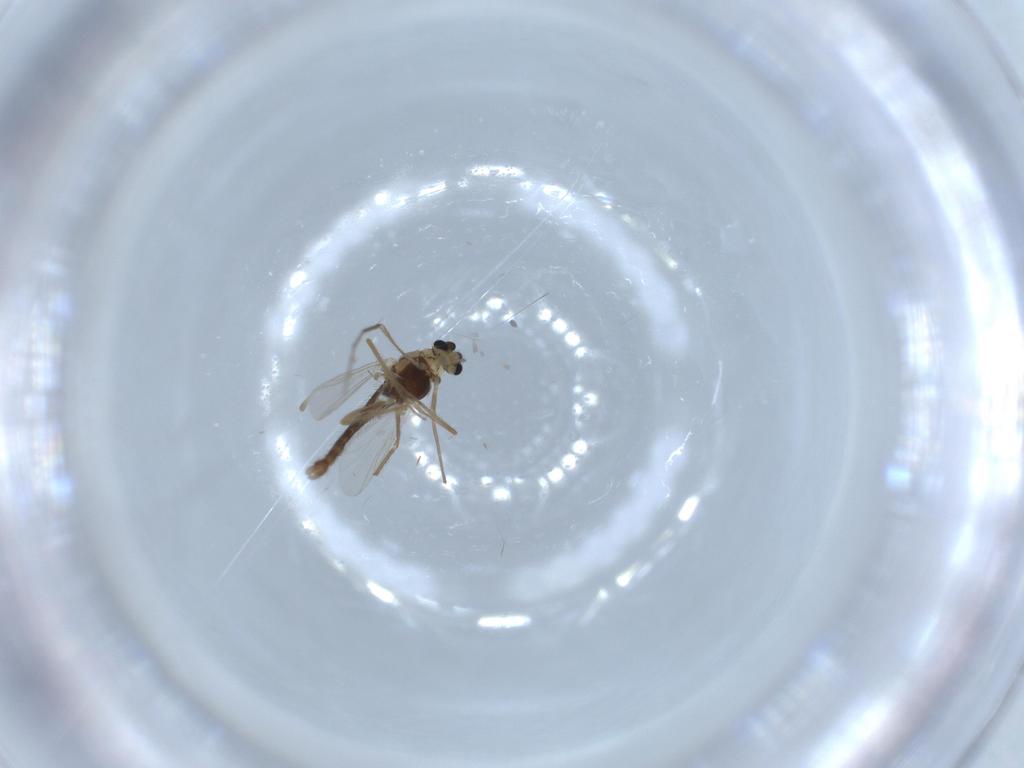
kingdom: Animalia
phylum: Arthropoda
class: Insecta
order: Diptera
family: Chironomidae
